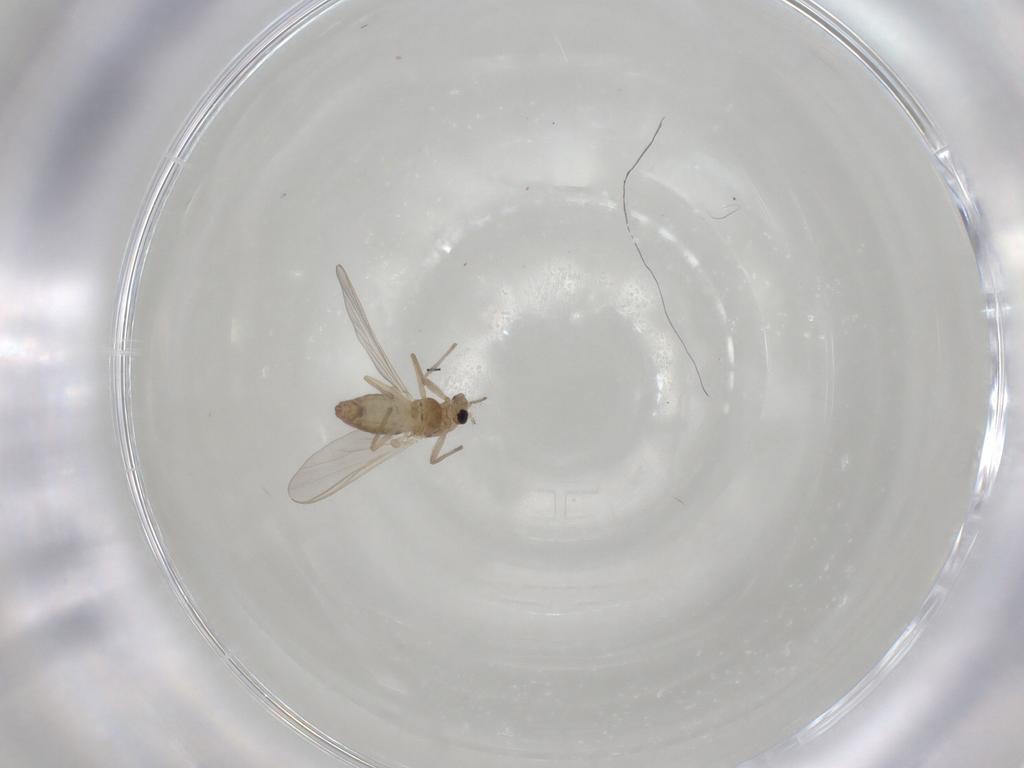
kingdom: Animalia
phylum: Arthropoda
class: Insecta
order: Diptera
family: Chironomidae
